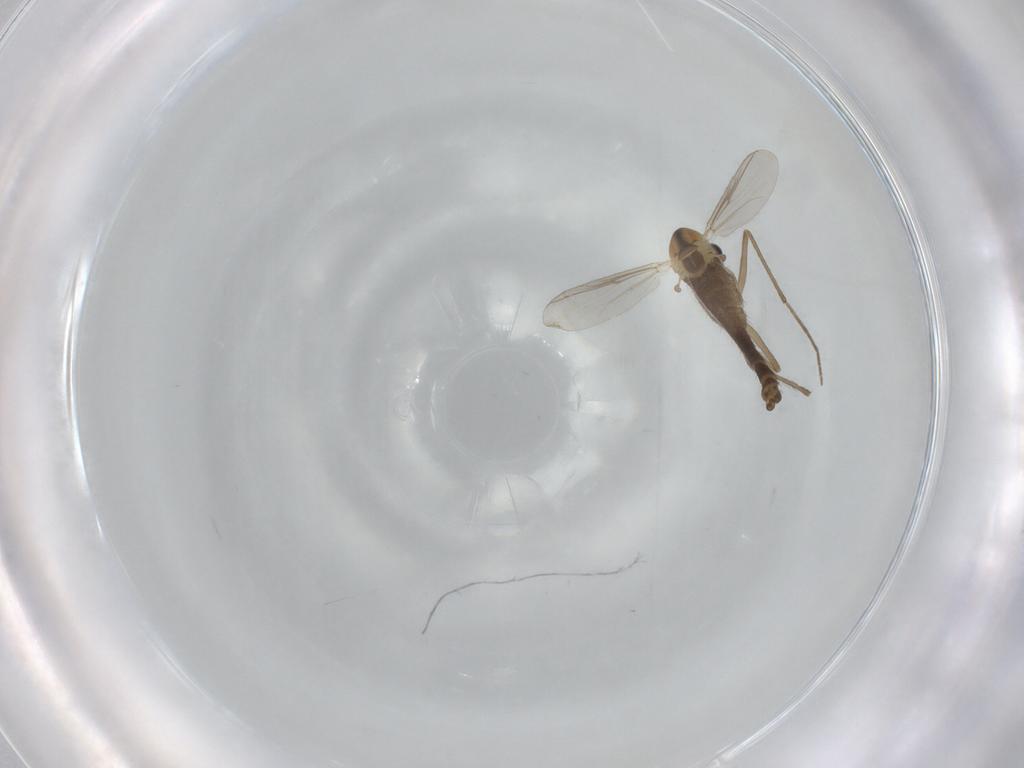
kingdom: Animalia
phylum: Arthropoda
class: Insecta
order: Diptera
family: Chironomidae
